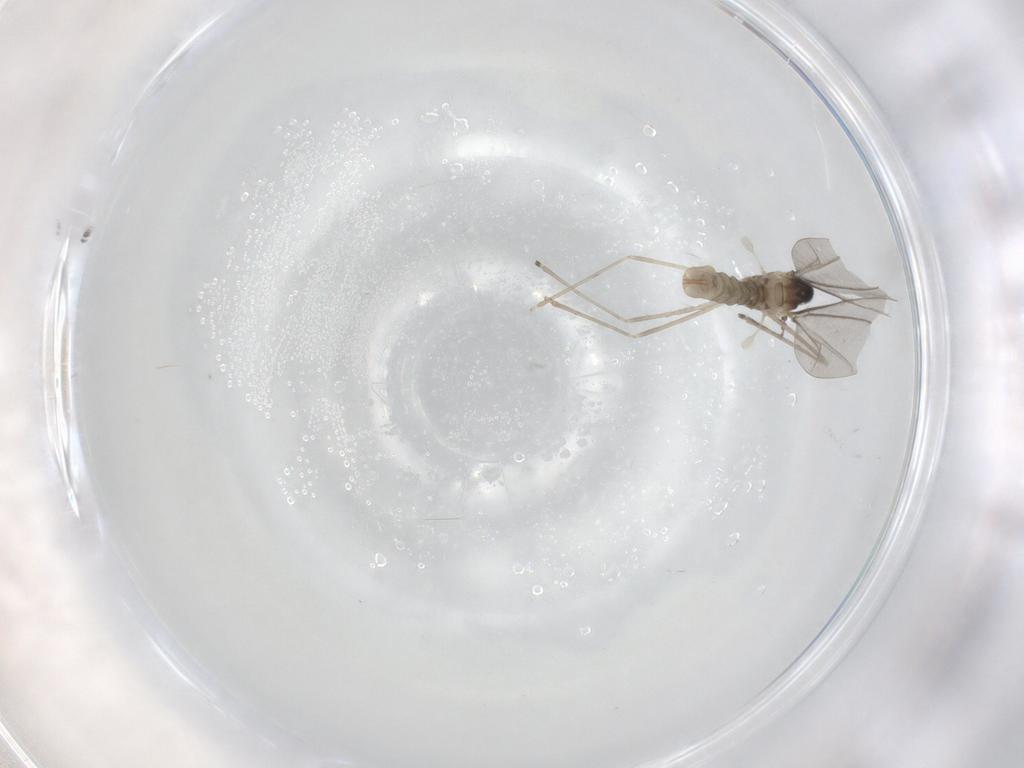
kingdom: Animalia
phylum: Arthropoda
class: Insecta
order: Diptera
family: Cecidomyiidae
